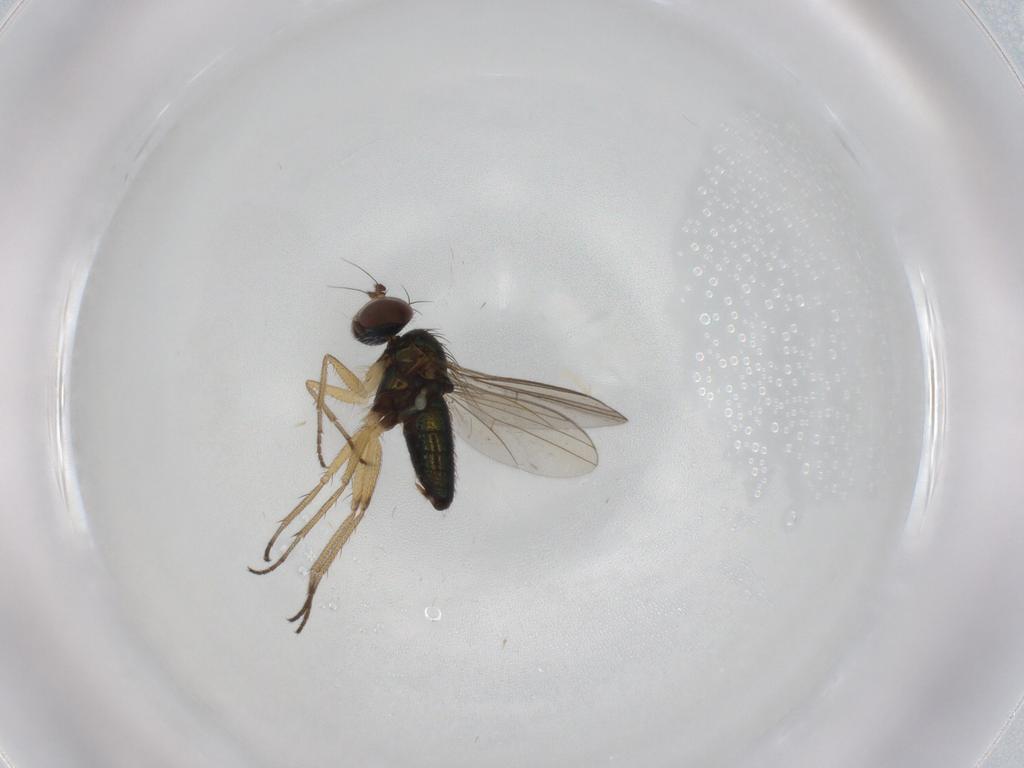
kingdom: Animalia
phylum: Arthropoda
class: Insecta
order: Diptera
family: Dolichopodidae
